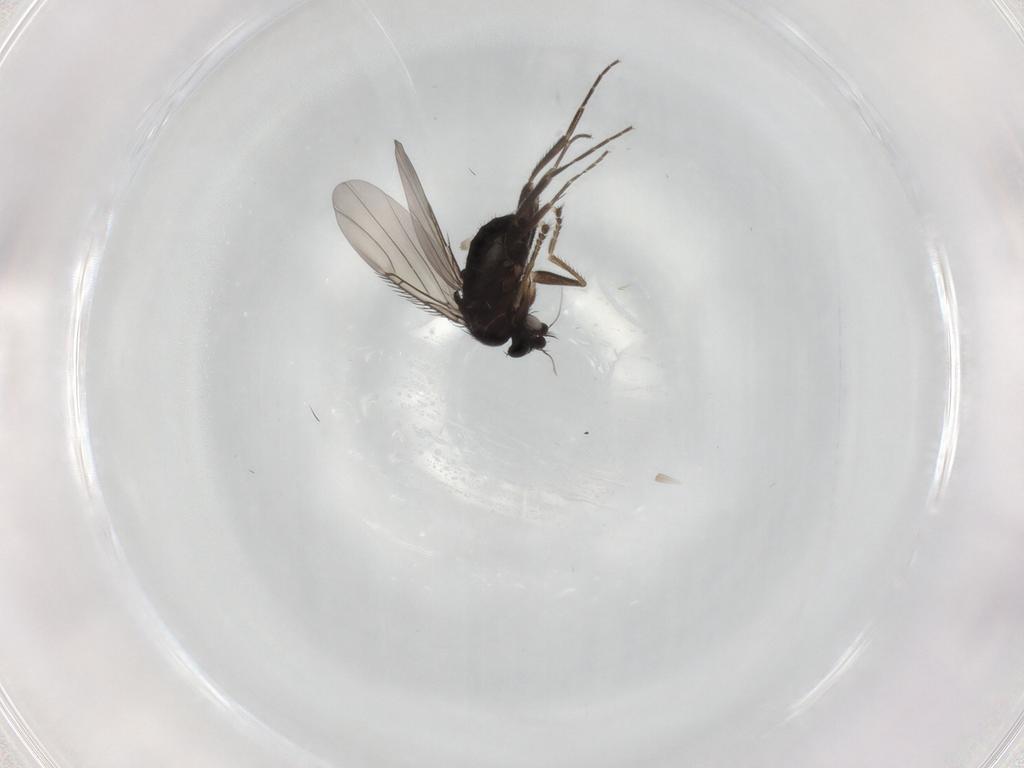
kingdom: Animalia
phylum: Arthropoda
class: Insecta
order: Diptera
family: Phoridae
